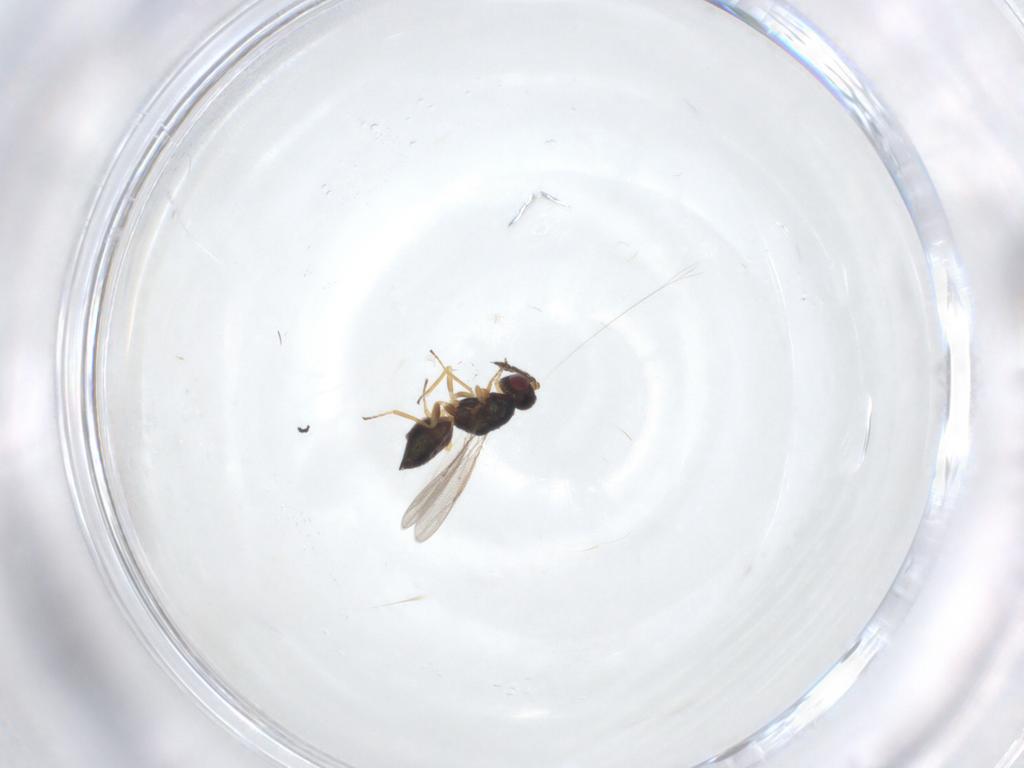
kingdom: Animalia
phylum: Arthropoda
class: Insecta
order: Hymenoptera
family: Eulophidae
